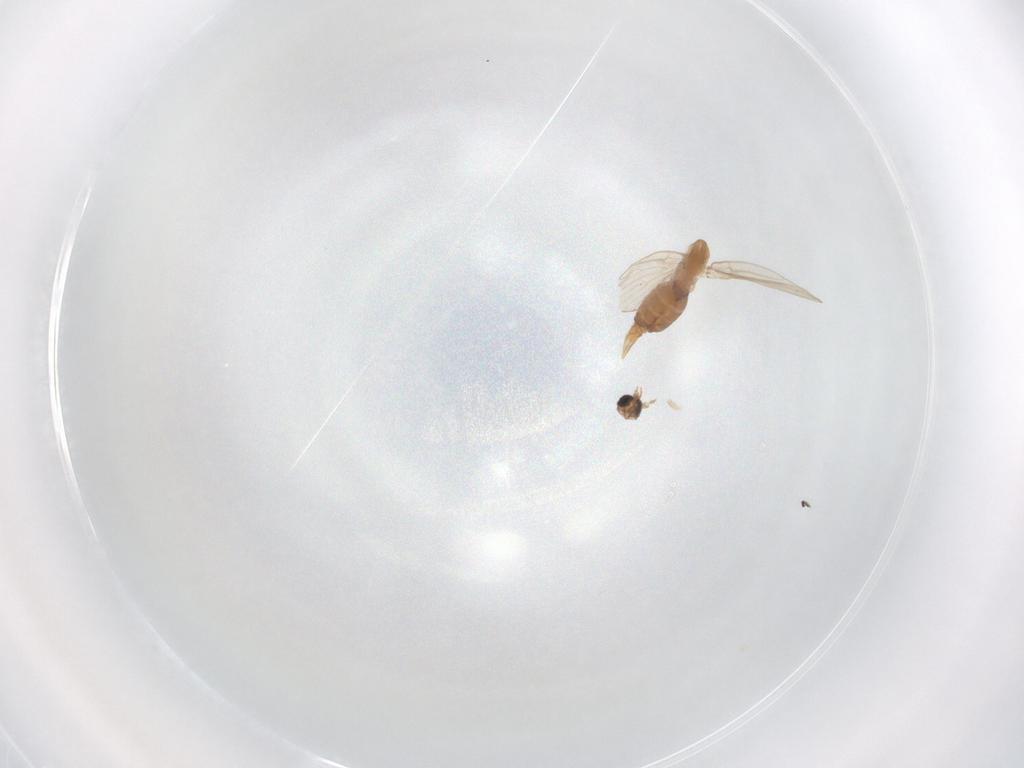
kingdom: Animalia
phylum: Arthropoda
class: Insecta
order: Diptera
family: Psychodidae
